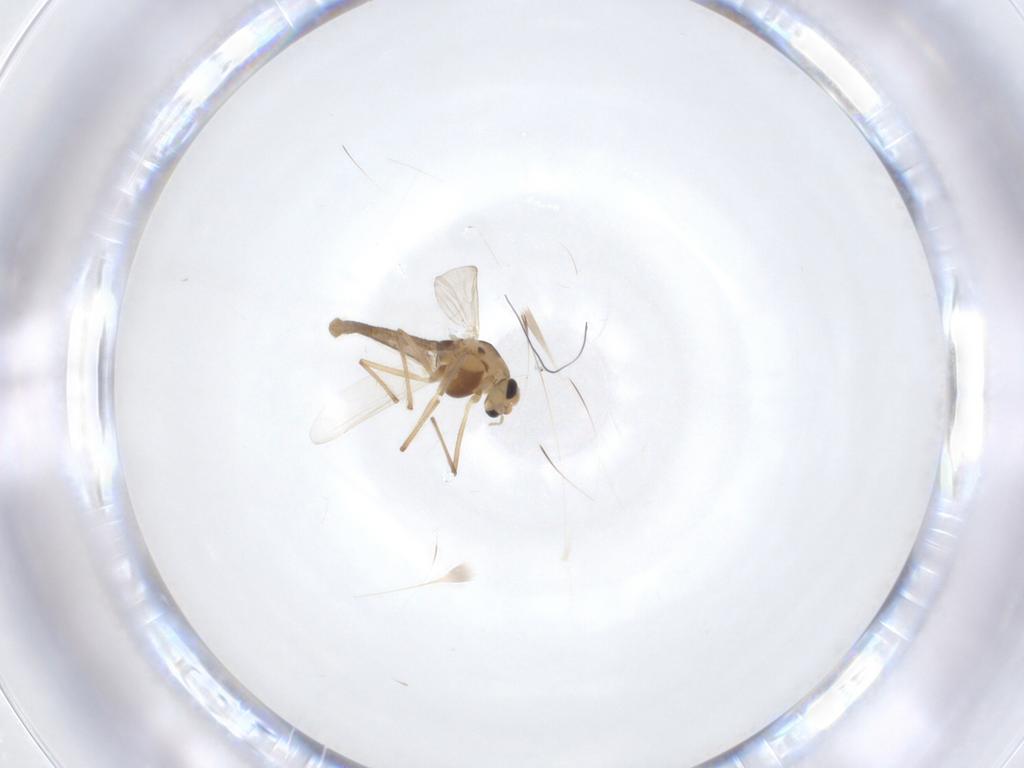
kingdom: Animalia
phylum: Arthropoda
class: Insecta
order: Diptera
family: Chironomidae
